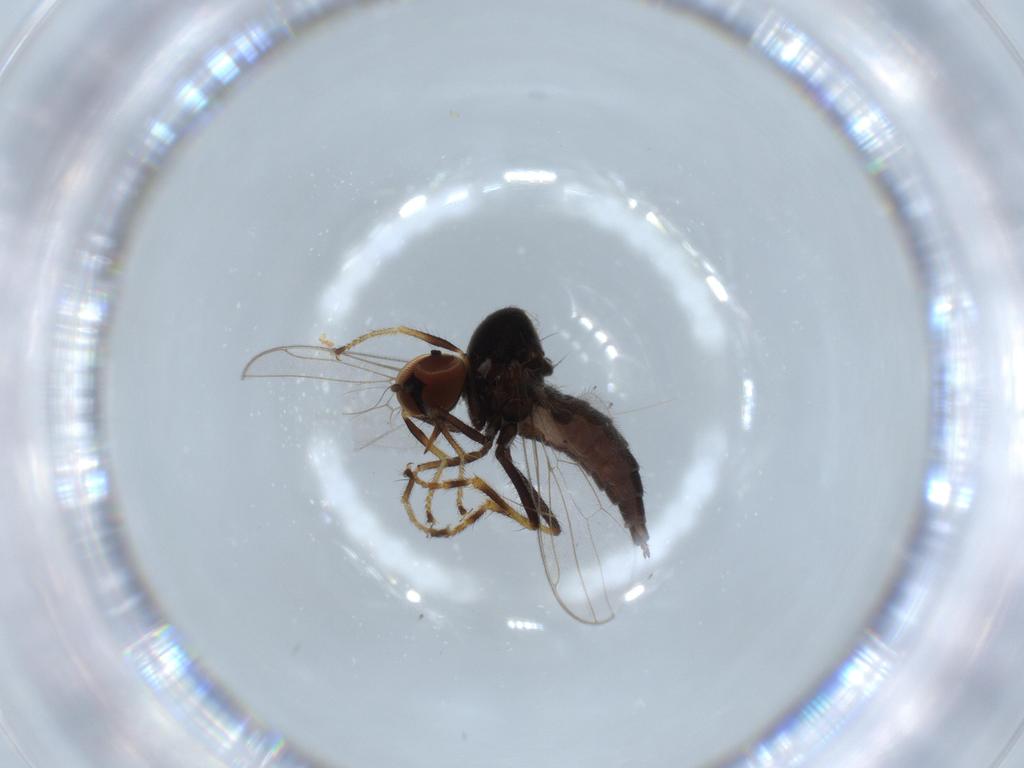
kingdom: Animalia
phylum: Arthropoda
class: Insecta
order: Diptera
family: Hybotidae
